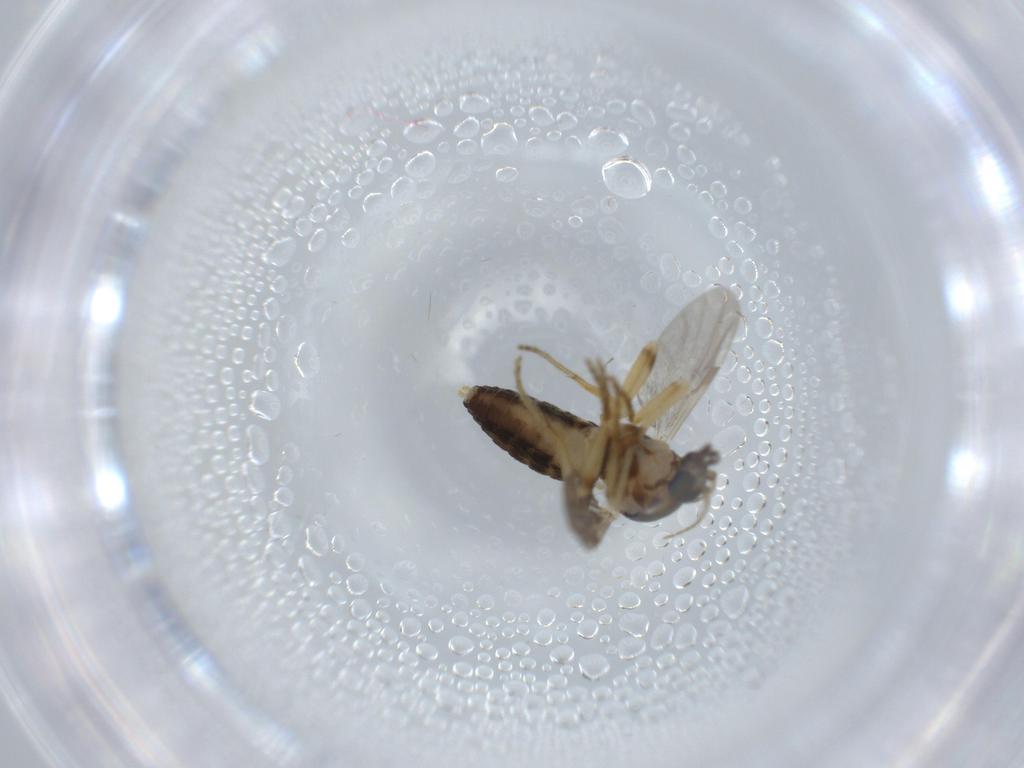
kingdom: Animalia
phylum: Arthropoda
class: Insecta
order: Diptera
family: Ceratopogonidae
